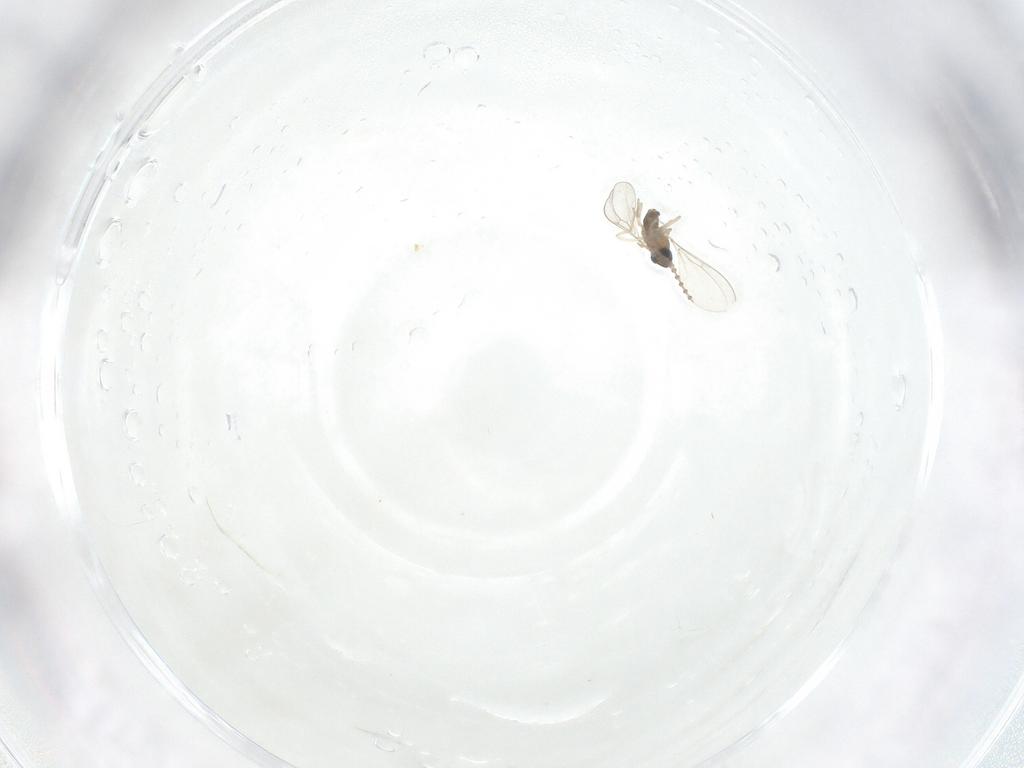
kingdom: Animalia
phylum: Arthropoda
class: Insecta
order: Diptera
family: Cecidomyiidae
